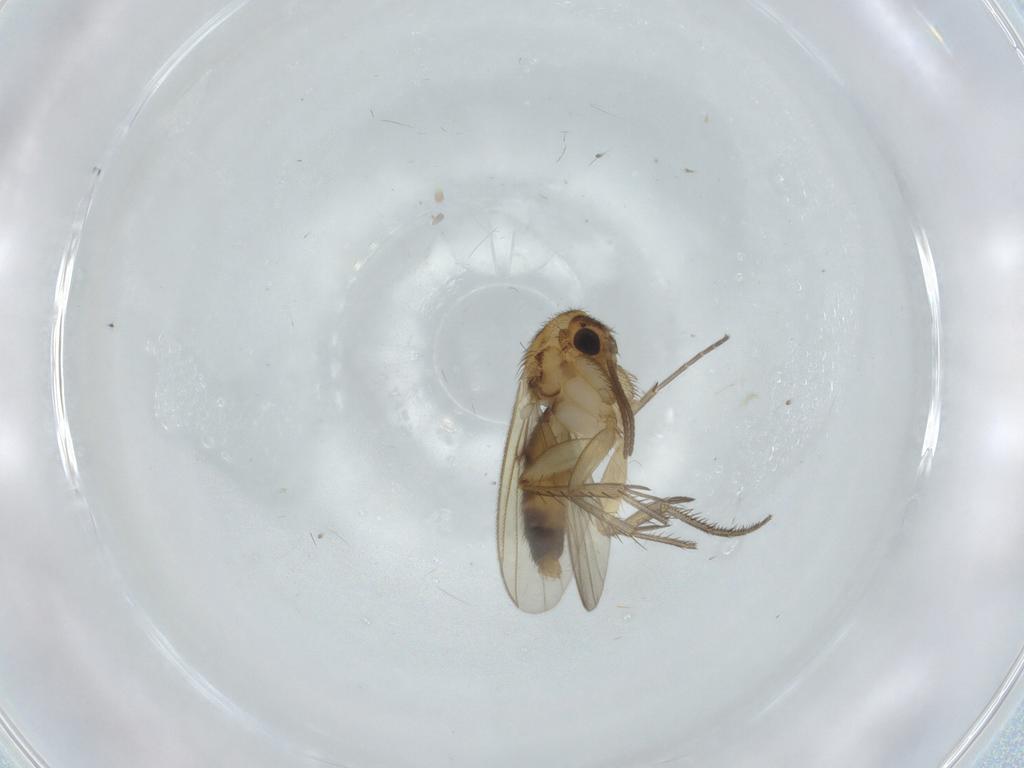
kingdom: Animalia
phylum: Arthropoda
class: Insecta
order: Diptera
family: Mycetophilidae
